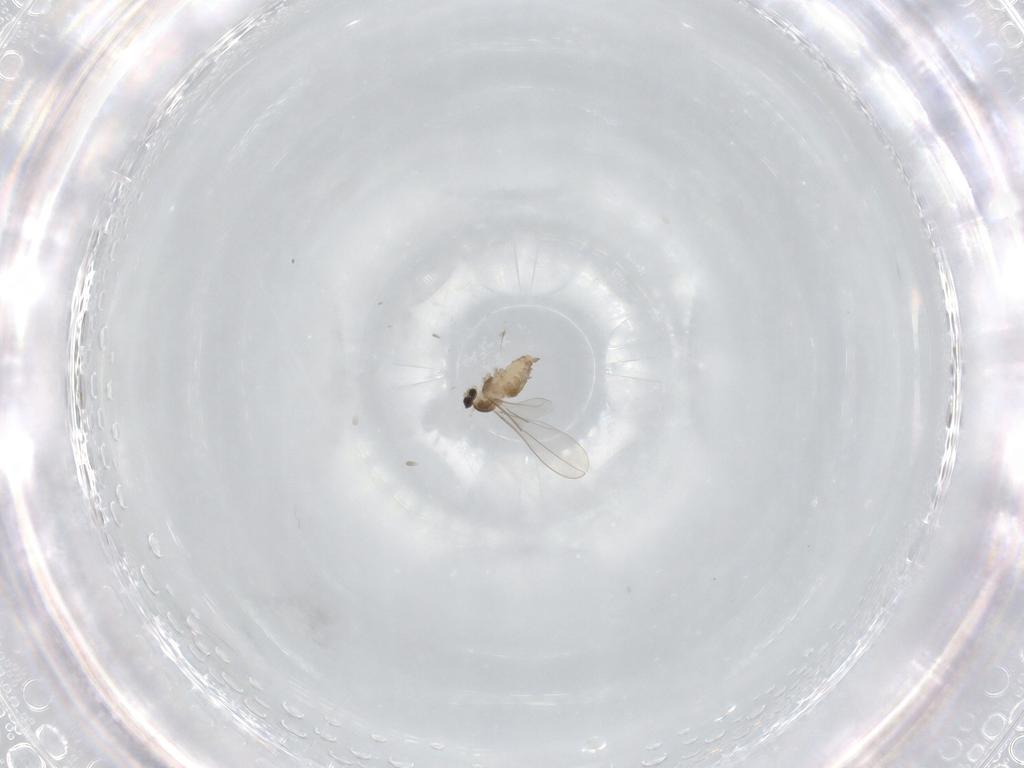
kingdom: Animalia
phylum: Arthropoda
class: Insecta
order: Diptera
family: Cecidomyiidae
